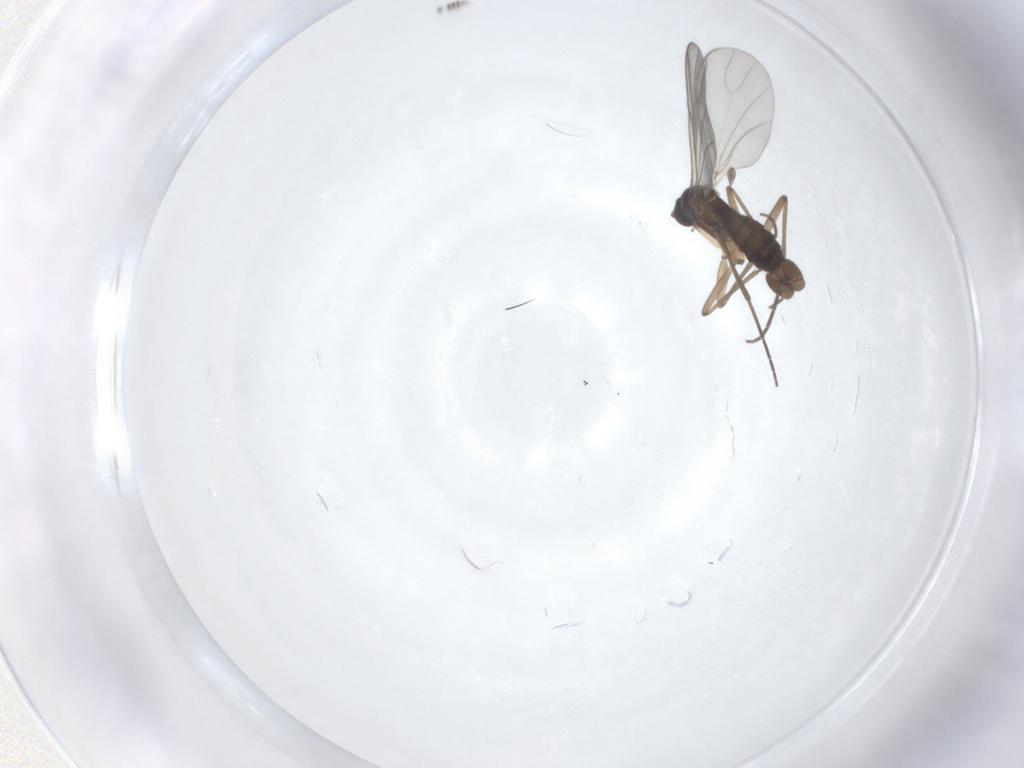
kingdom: Animalia
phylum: Arthropoda
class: Insecta
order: Diptera
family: Sciaridae
